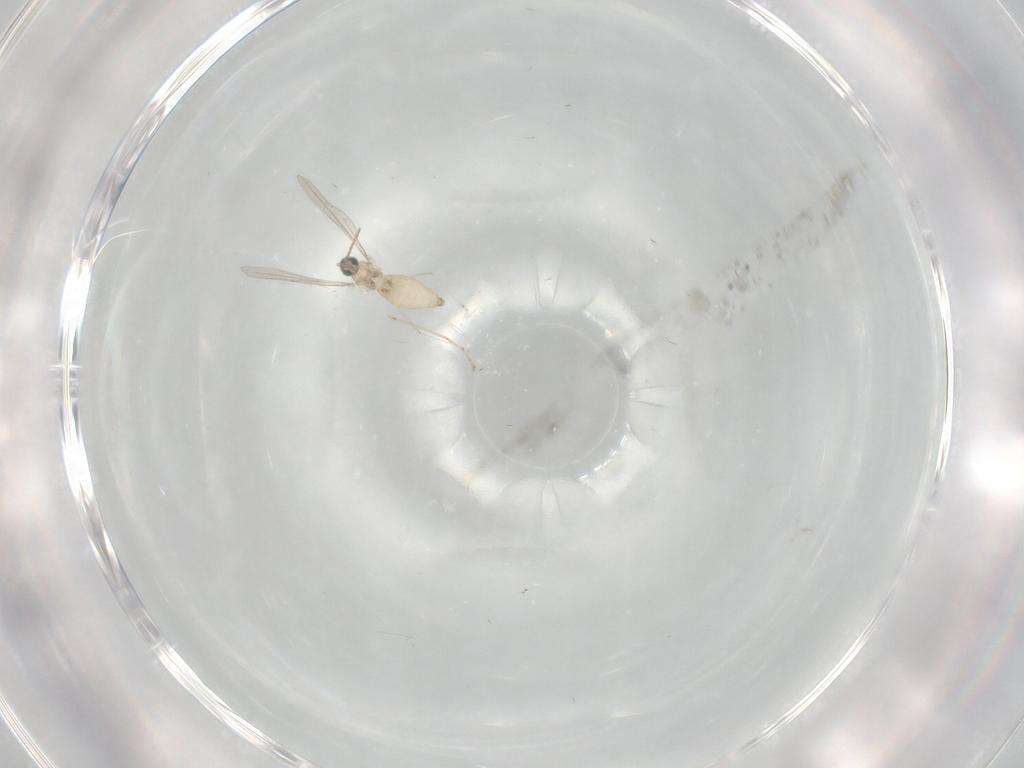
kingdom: Animalia
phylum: Arthropoda
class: Insecta
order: Diptera
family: Cecidomyiidae
